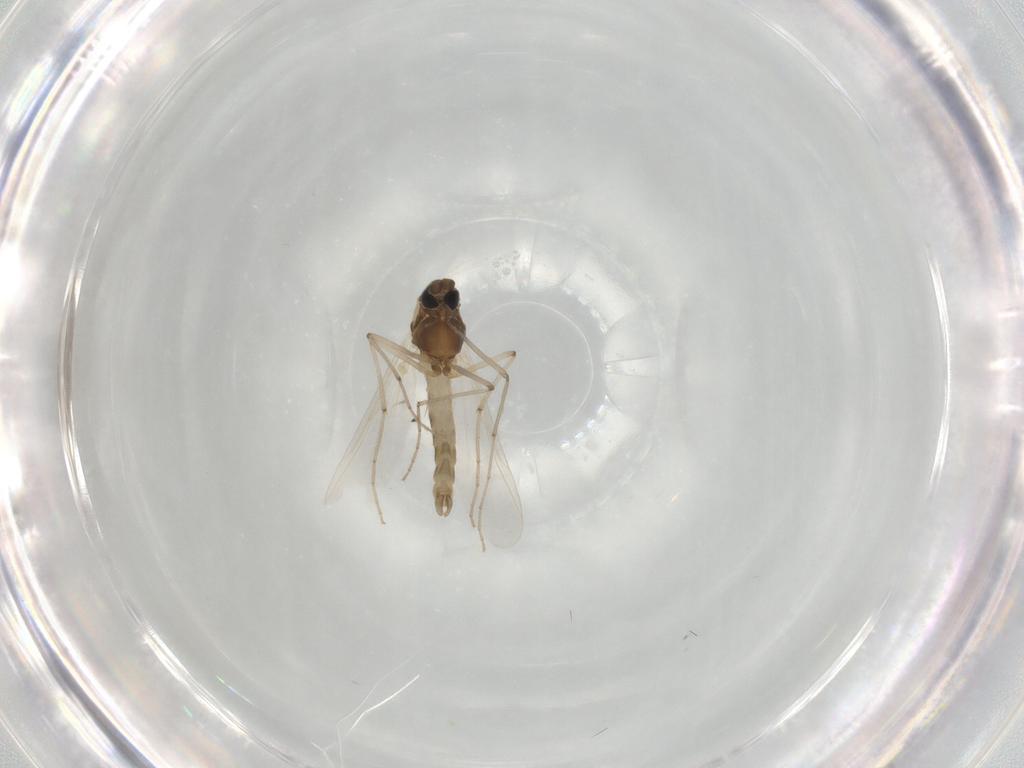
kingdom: Animalia
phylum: Arthropoda
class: Insecta
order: Diptera
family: Chironomidae
